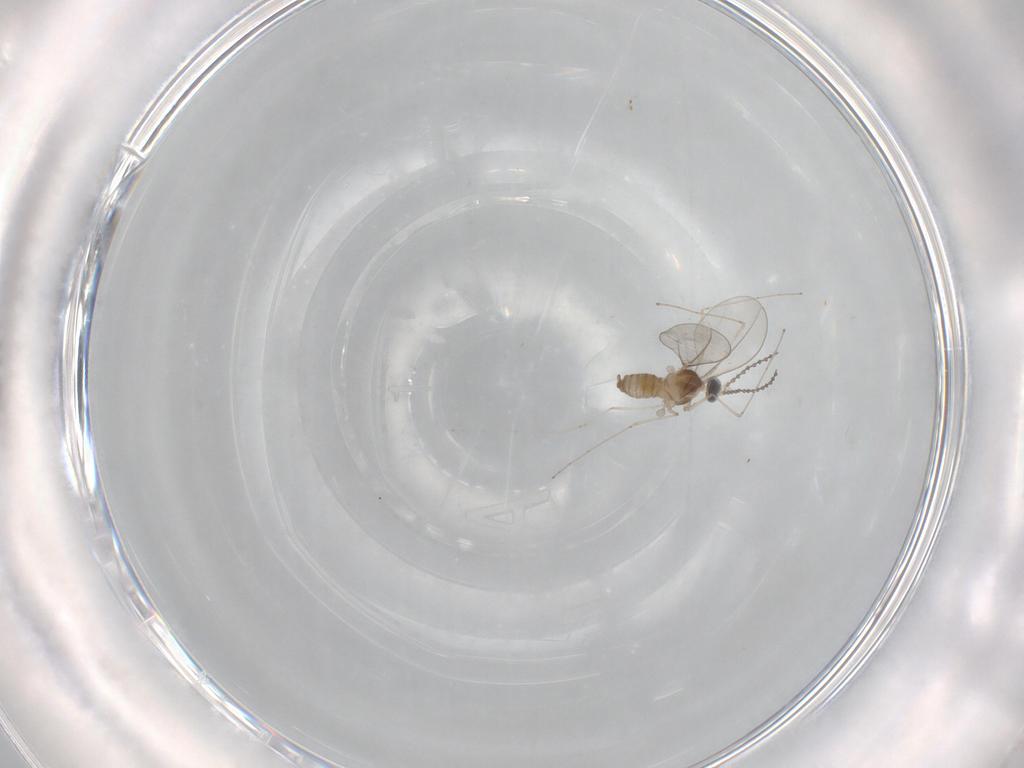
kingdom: Animalia
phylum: Arthropoda
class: Insecta
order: Diptera
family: Cecidomyiidae
